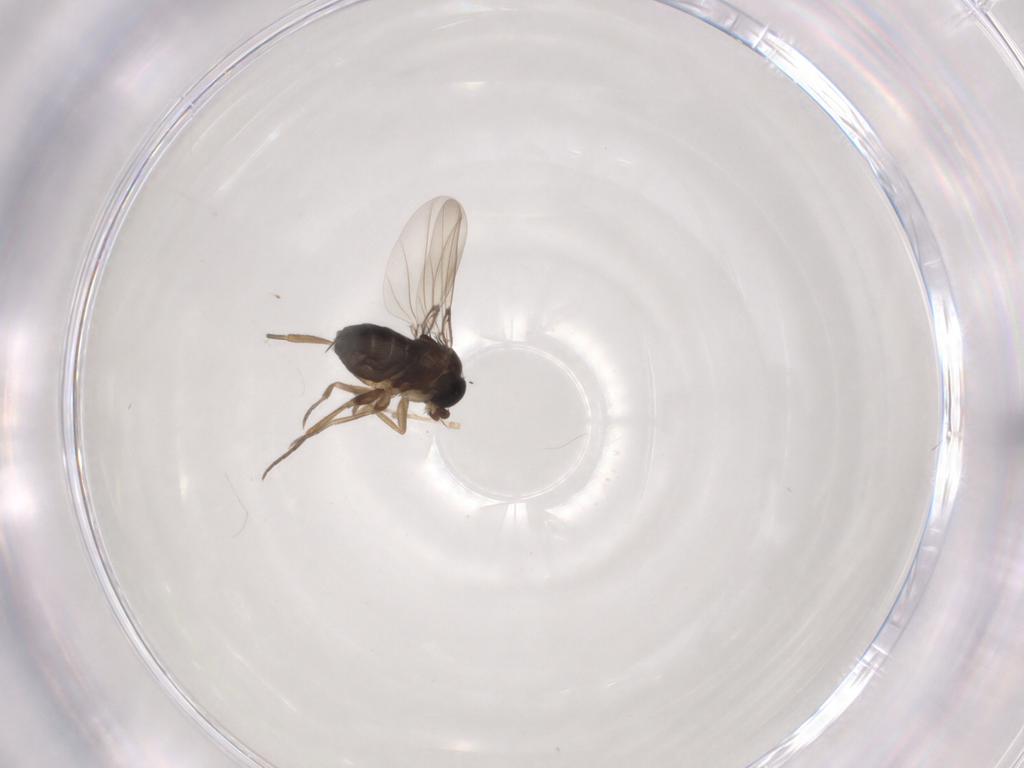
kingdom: Animalia
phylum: Arthropoda
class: Insecta
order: Diptera
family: Phoridae
